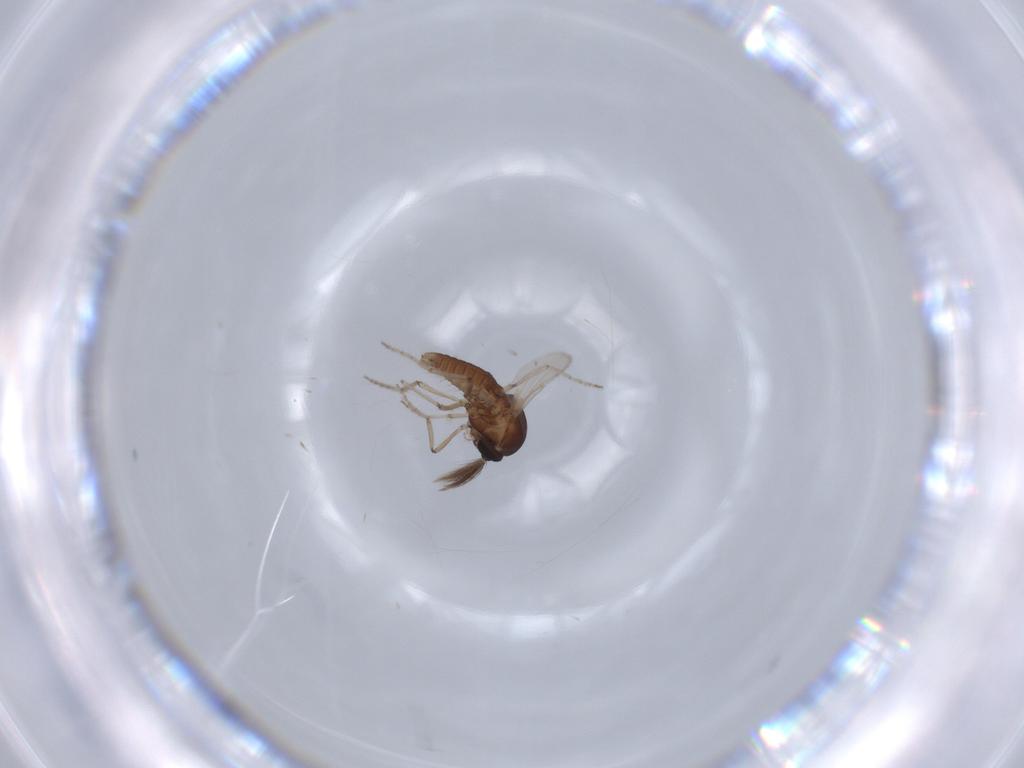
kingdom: Animalia
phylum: Arthropoda
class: Insecta
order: Diptera
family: Ceratopogonidae
